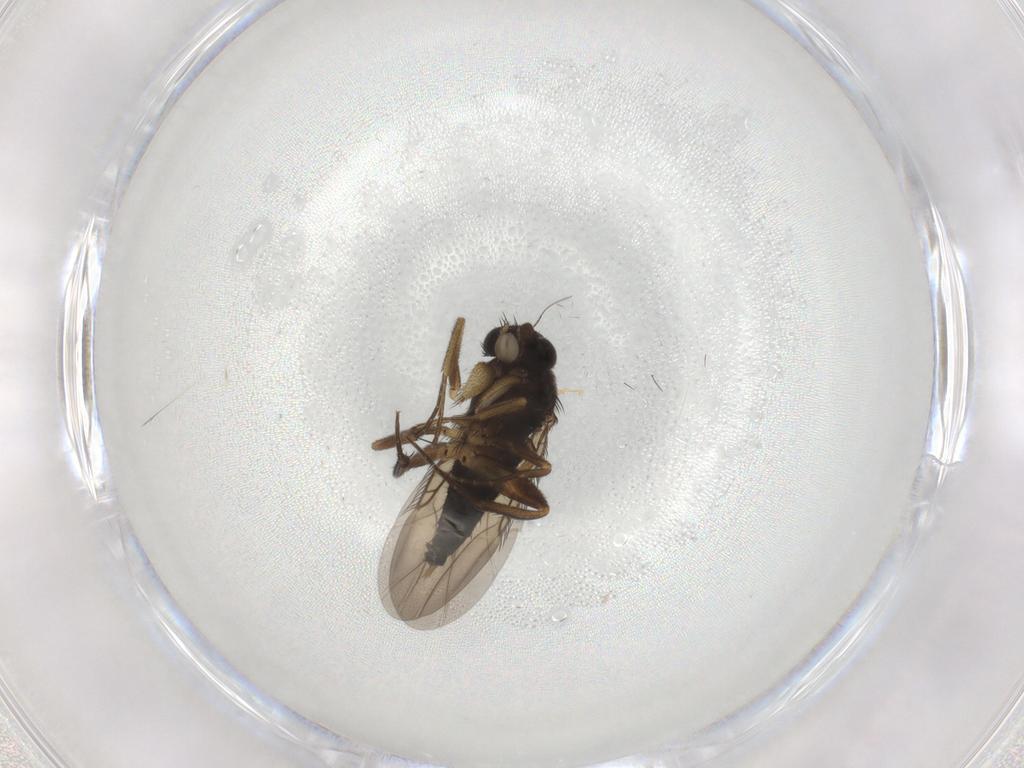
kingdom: Animalia
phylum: Arthropoda
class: Insecta
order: Diptera
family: Phoridae
